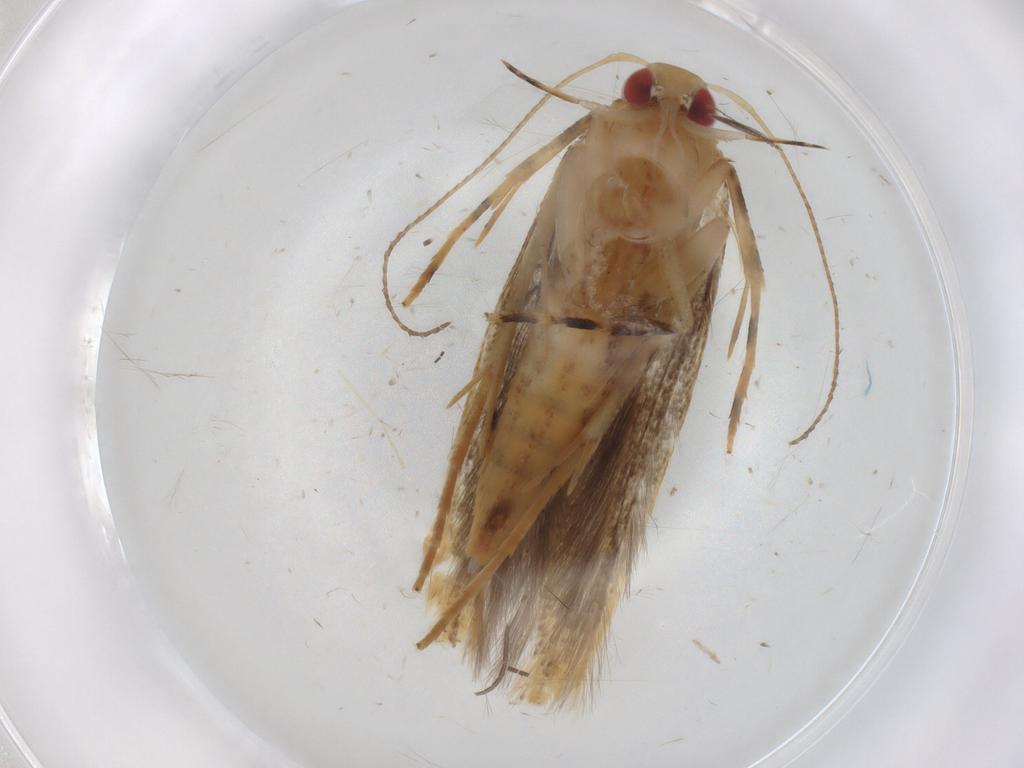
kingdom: Animalia
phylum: Arthropoda
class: Insecta
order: Lepidoptera
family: Cosmopterigidae
